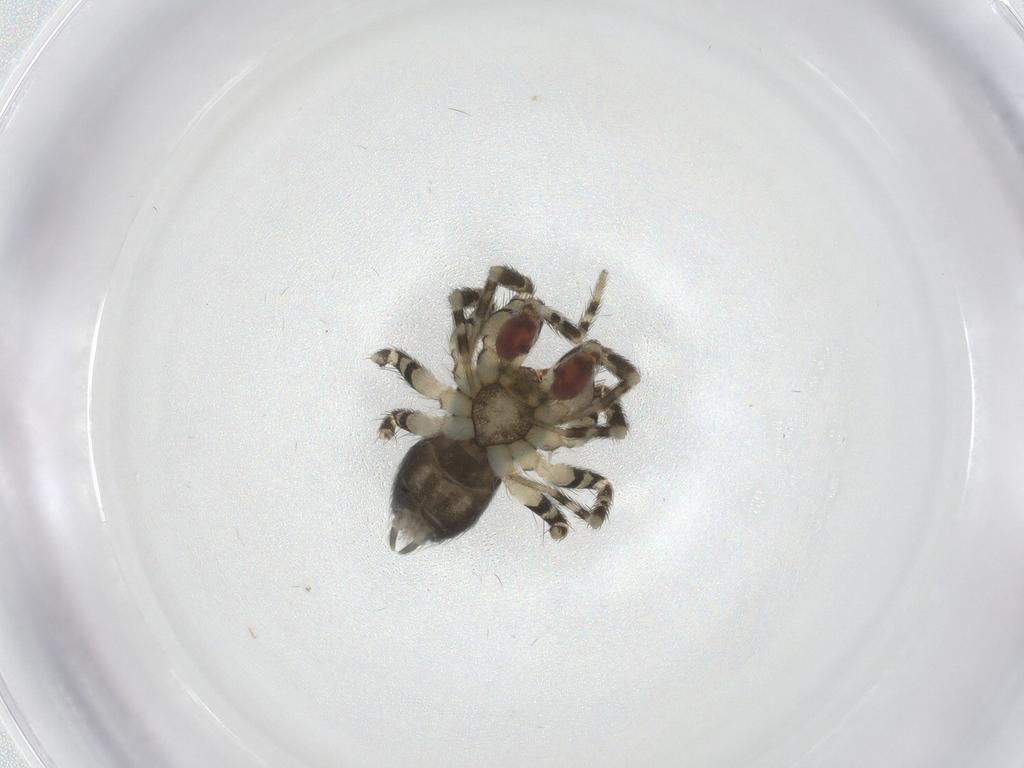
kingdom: Animalia
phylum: Arthropoda
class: Arachnida
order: Araneae
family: Oecobiidae
